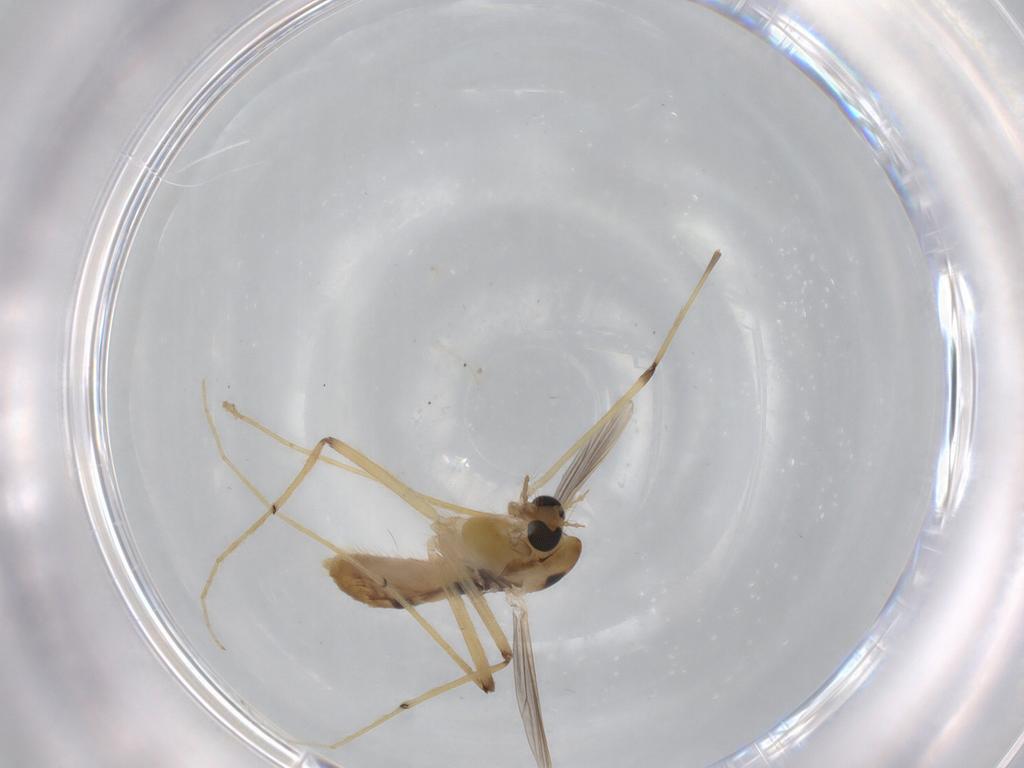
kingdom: Animalia
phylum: Arthropoda
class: Insecta
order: Diptera
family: Chironomidae
